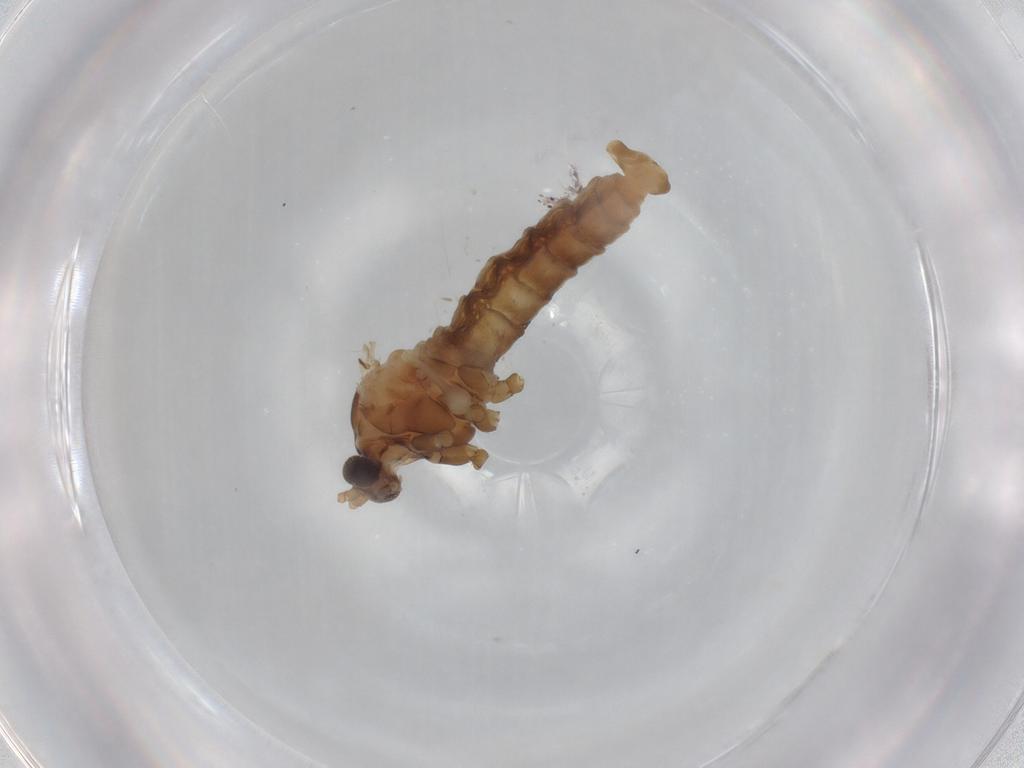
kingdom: Animalia
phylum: Arthropoda
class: Insecta
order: Diptera
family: Cecidomyiidae
